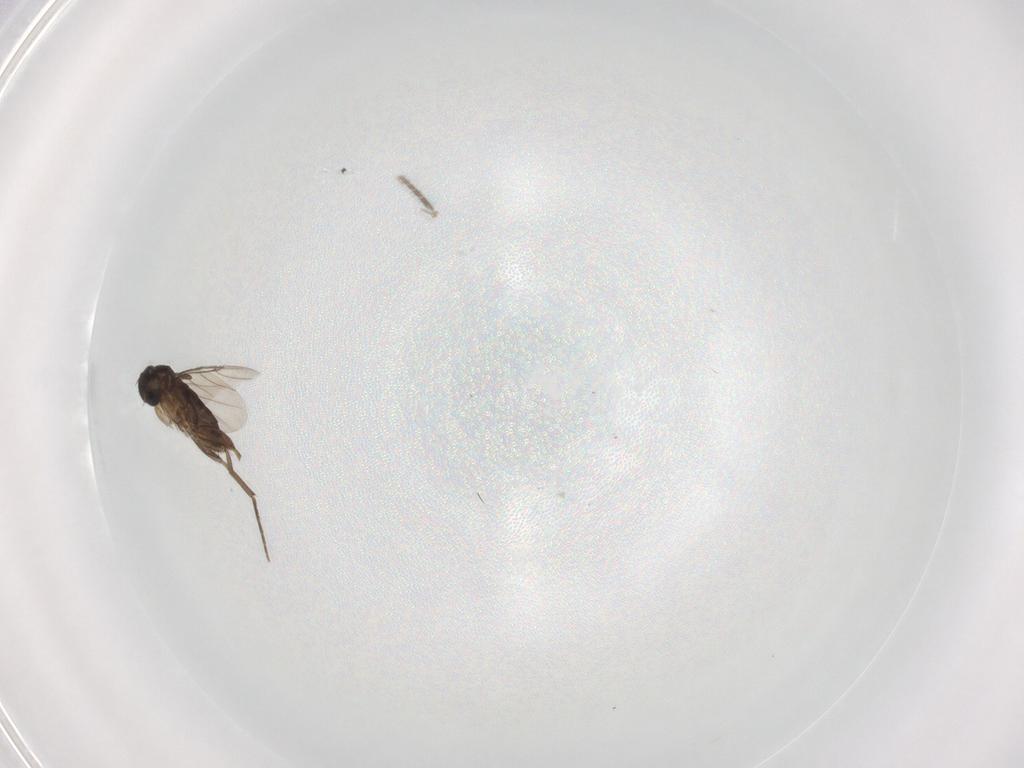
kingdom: Animalia
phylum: Arthropoda
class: Insecta
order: Diptera
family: Sciaridae
